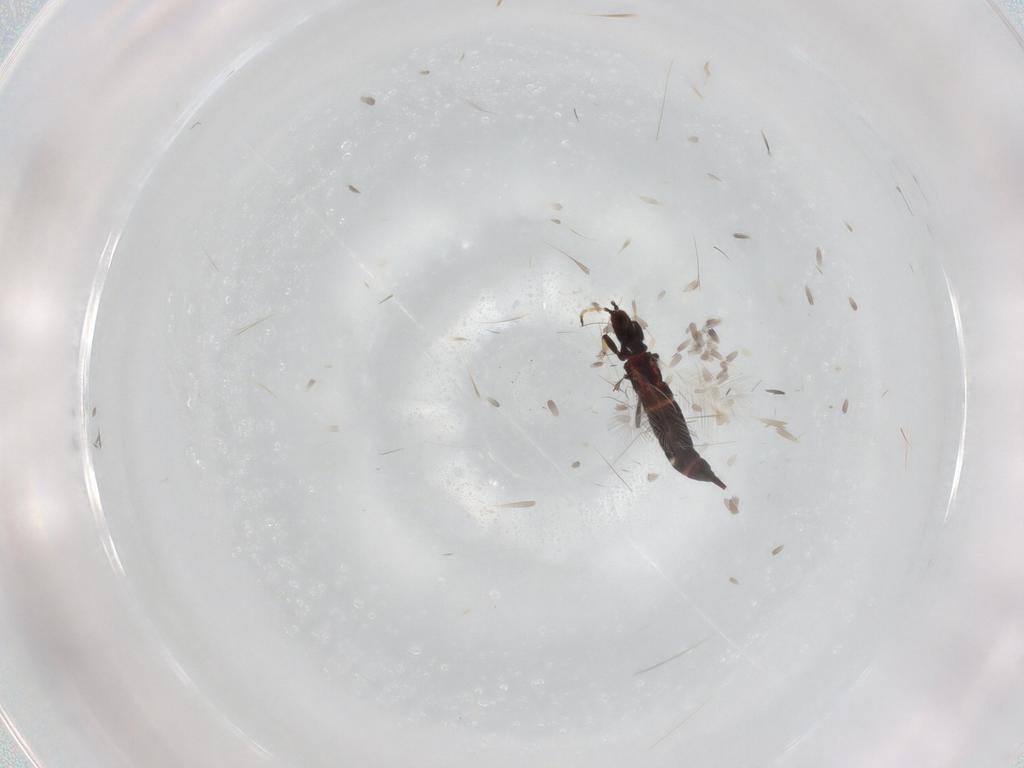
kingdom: Animalia
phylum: Arthropoda
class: Insecta
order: Thysanoptera
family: Phlaeothripidae
